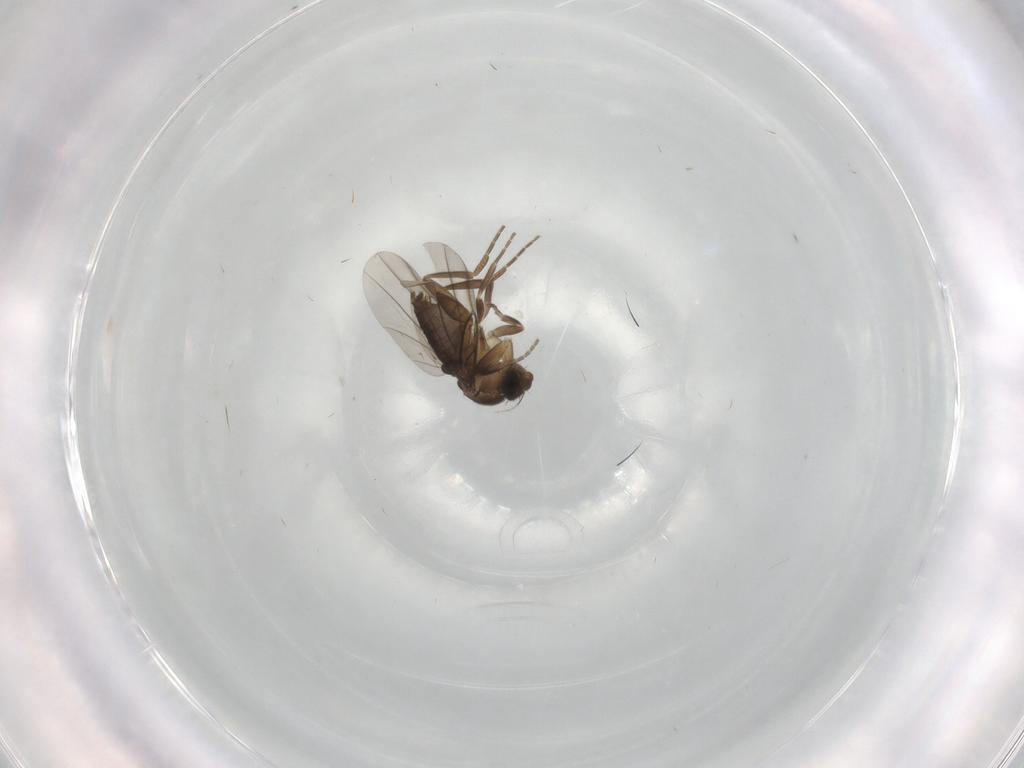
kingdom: Animalia
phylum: Arthropoda
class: Insecta
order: Diptera
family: Phoridae
